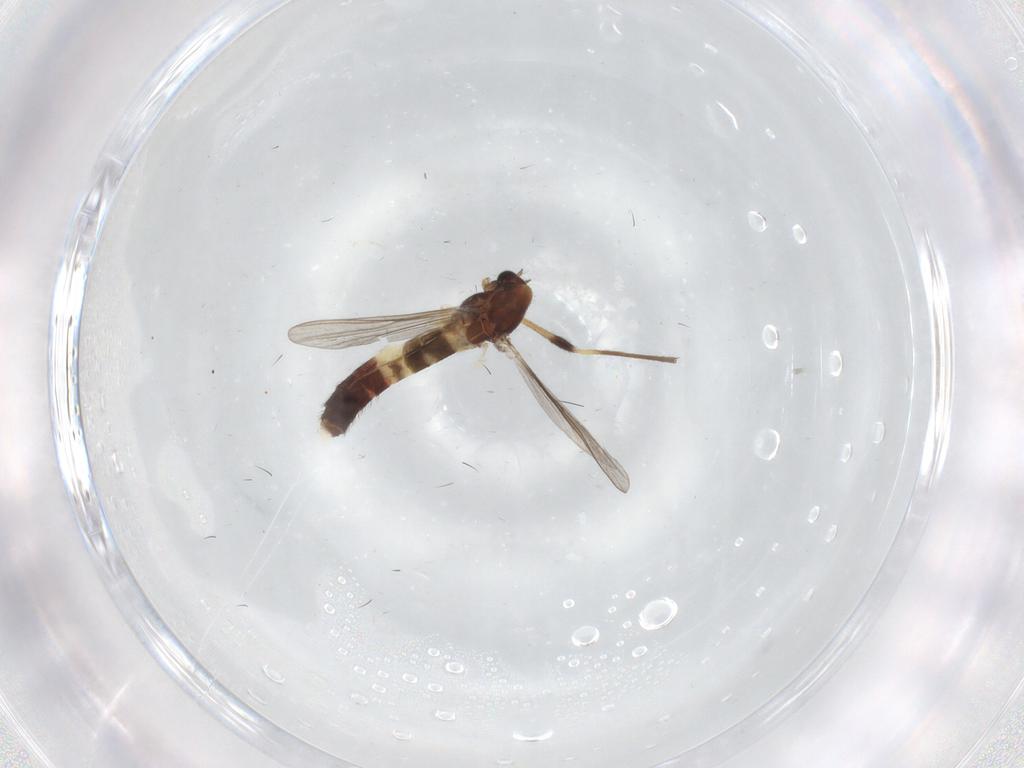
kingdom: Animalia
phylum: Arthropoda
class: Insecta
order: Diptera
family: Chironomidae
